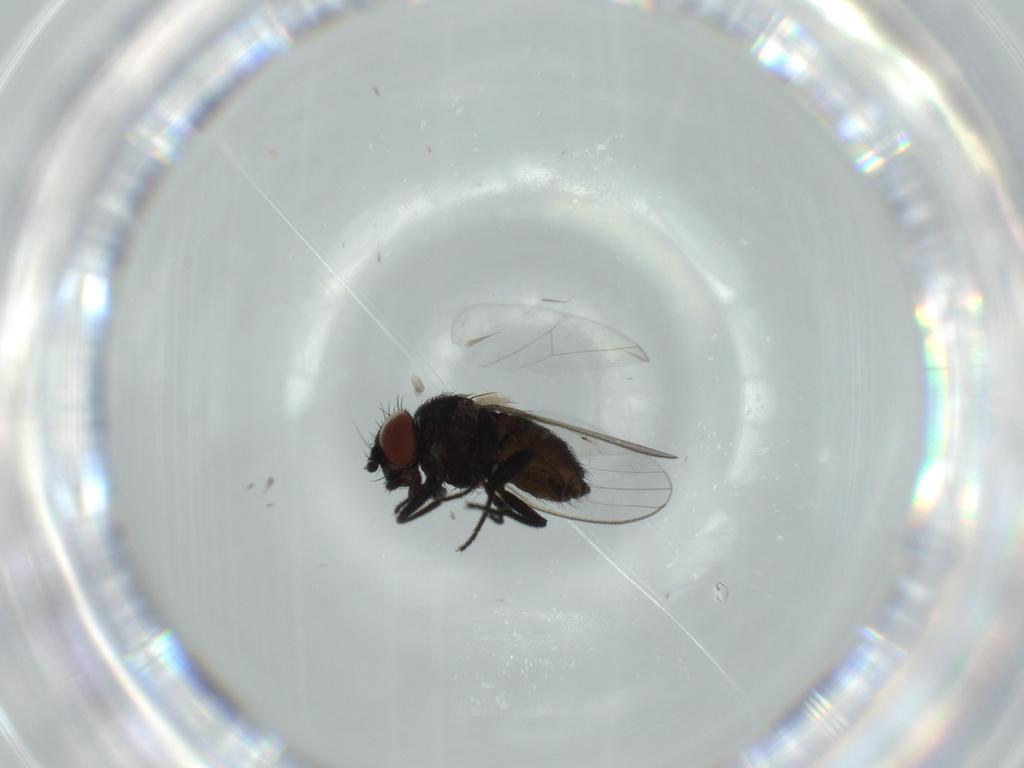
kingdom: Animalia
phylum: Arthropoda
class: Insecta
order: Diptera
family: Milichiidae
